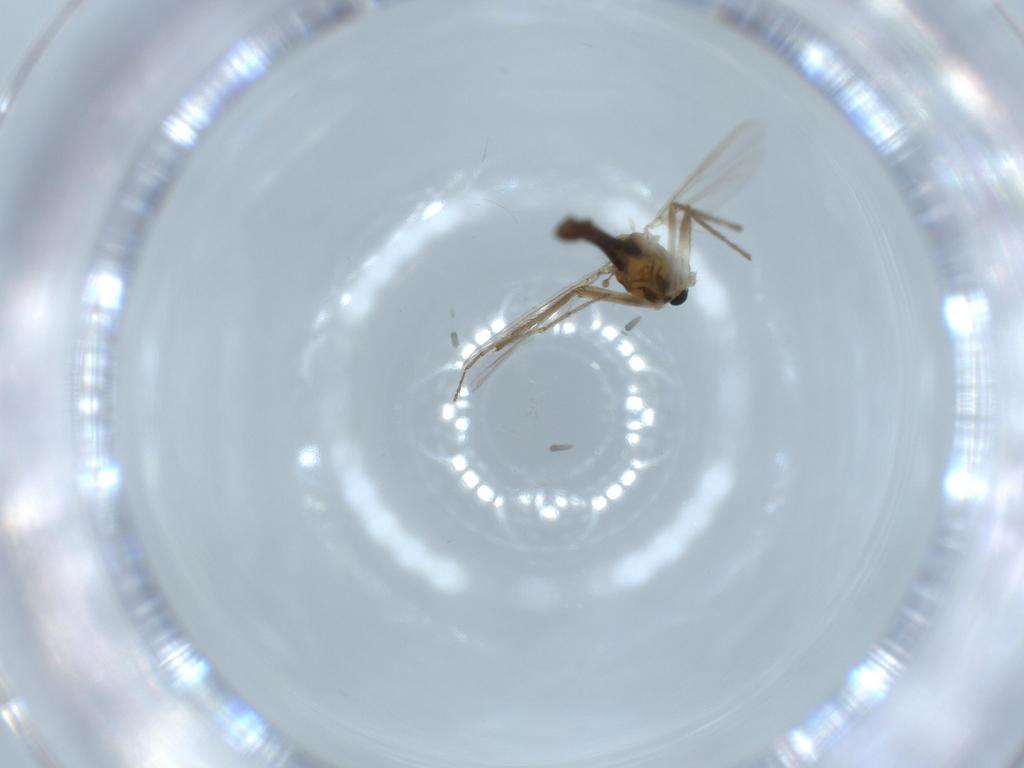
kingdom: Animalia
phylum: Arthropoda
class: Insecta
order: Diptera
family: Chironomidae
